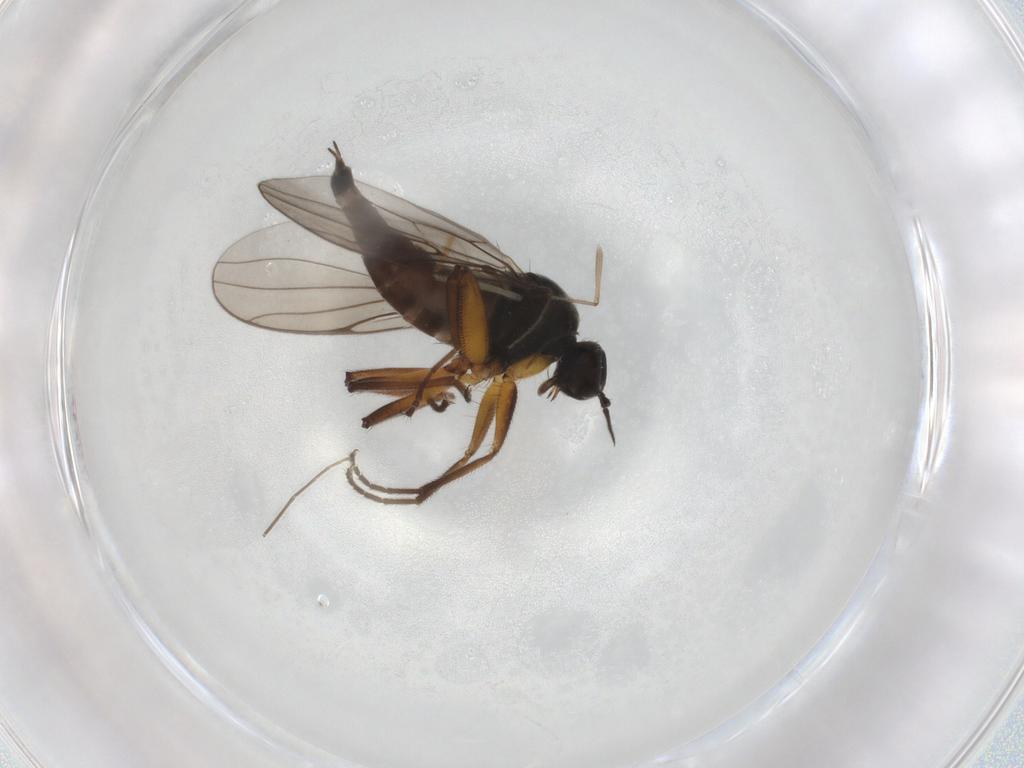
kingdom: Animalia
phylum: Arthropoda
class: Insecta
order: Diptera
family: Hybotidae
